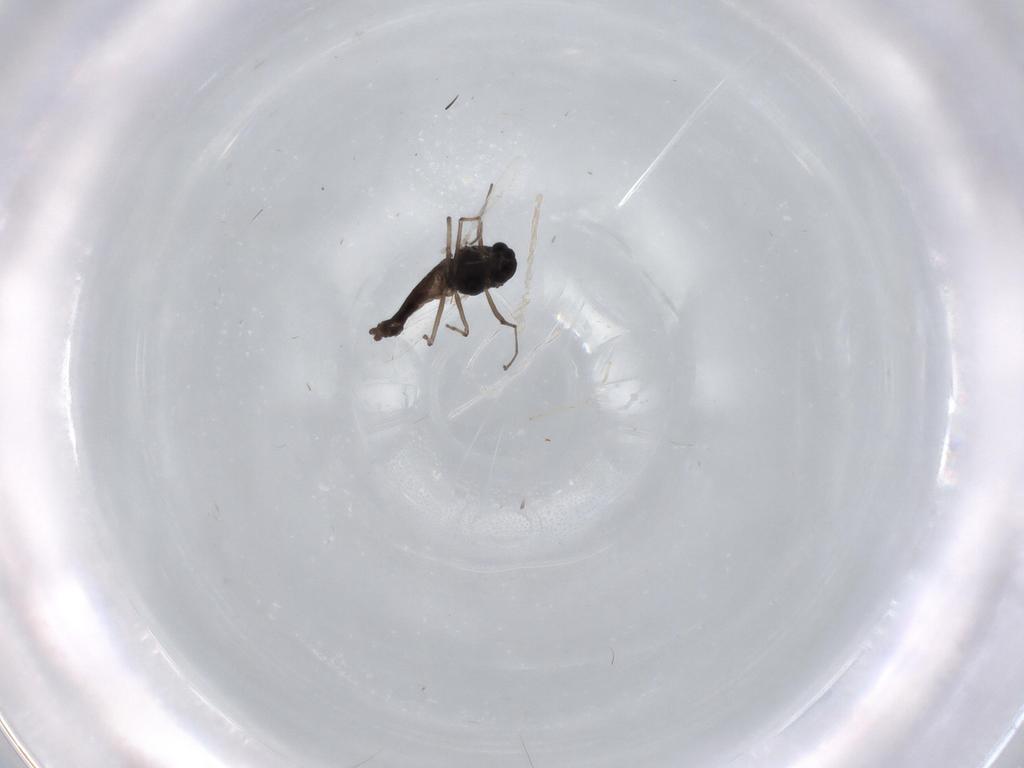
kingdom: Animalia
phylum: Arthropoda
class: Insecta
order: Diptera
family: Chironomidae
